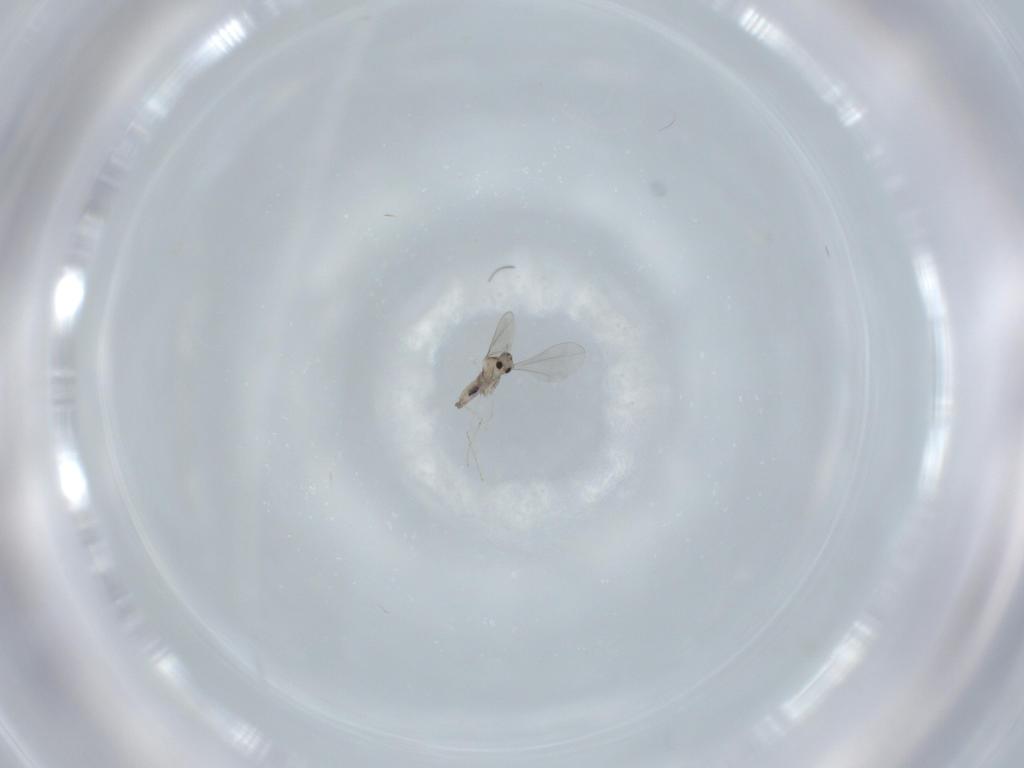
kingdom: Animalia
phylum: Arthropoda
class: Insecta
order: Diptera
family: Cecidomyiidae
